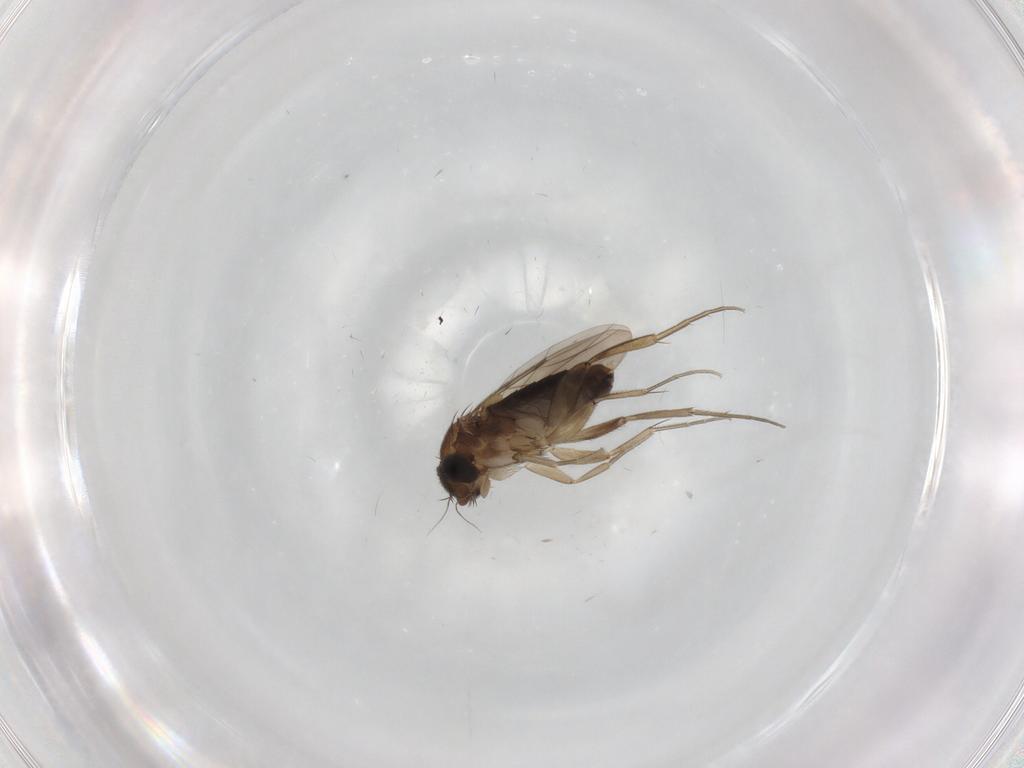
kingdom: Animalia
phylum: Arthropoda
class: Insecta
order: Diptera
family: Phoridae
